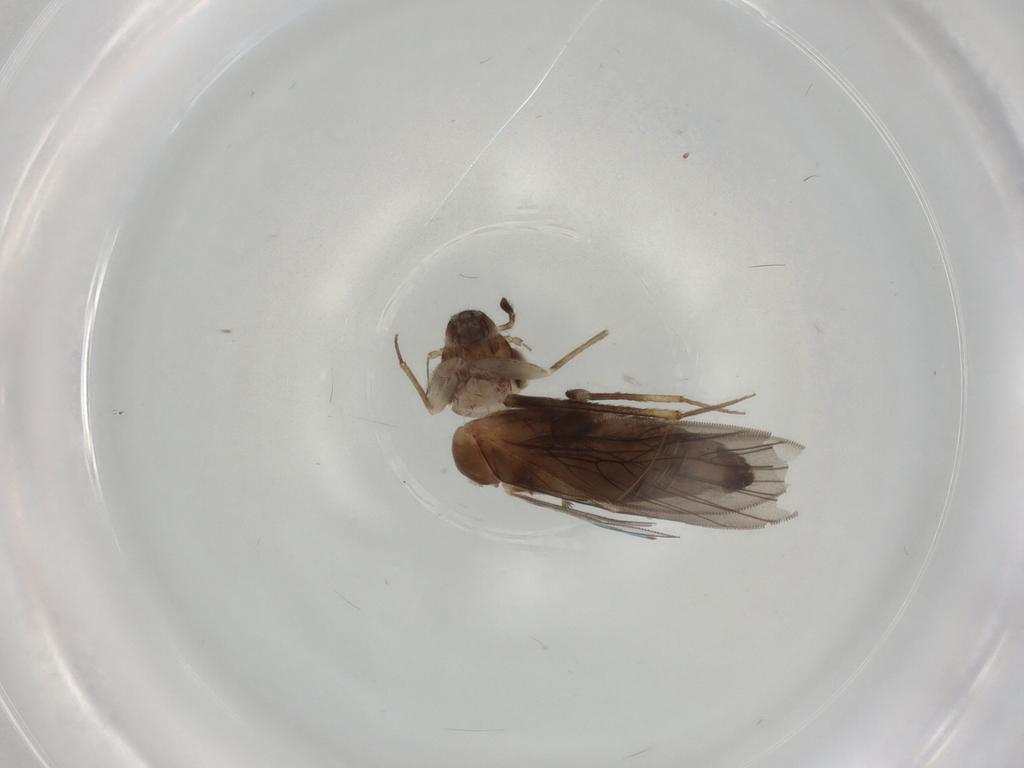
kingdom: Animalia
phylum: Arthropoda
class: Insecta
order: Psocodea
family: Lepidopsocidae
